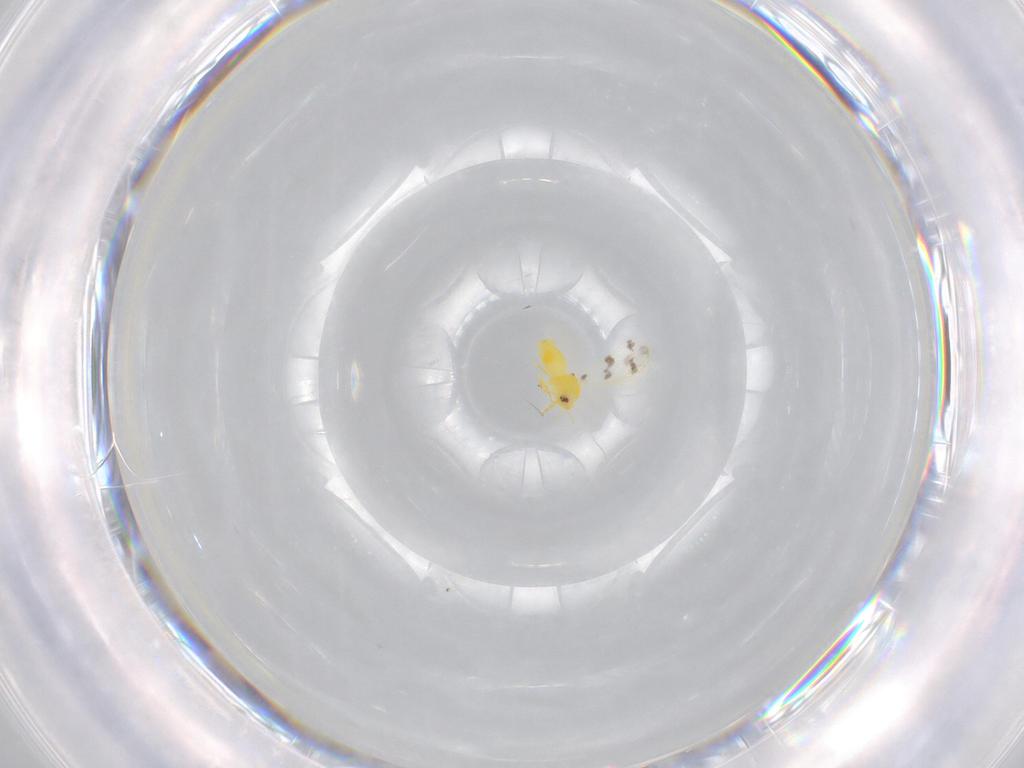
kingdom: Animalia
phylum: Arthropoda
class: Insecta
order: Hemiptera
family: Aleyrodidae
